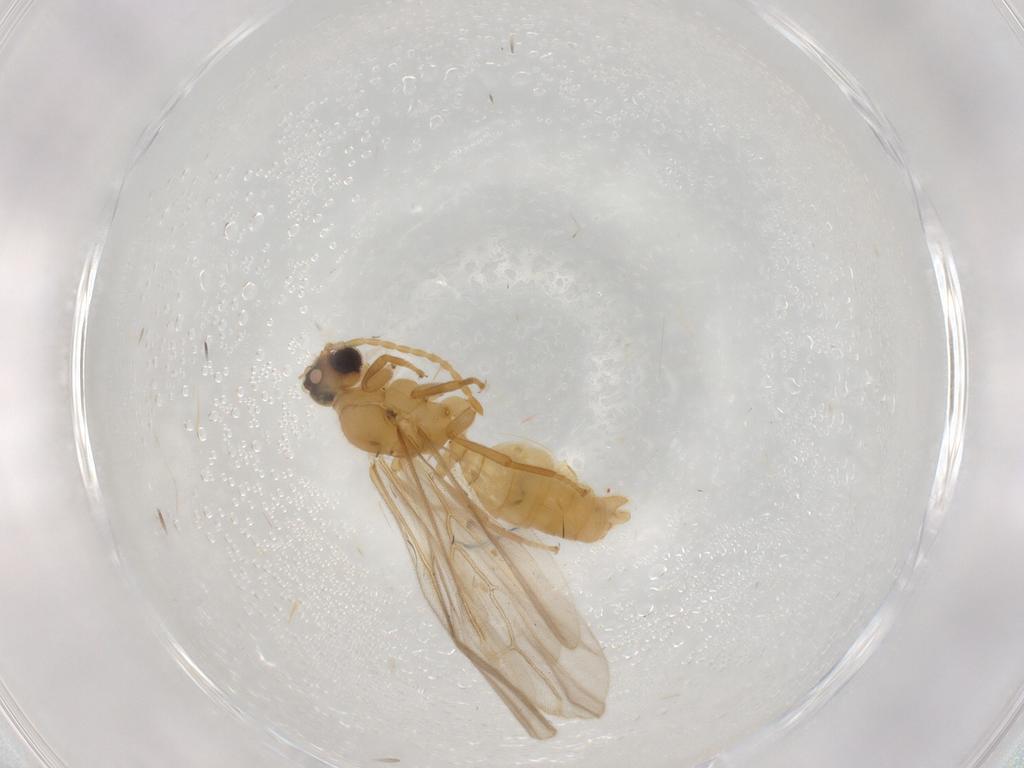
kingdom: Animalia
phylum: Arthropoda
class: Insecta
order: Hymenoptera
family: Formicidae
